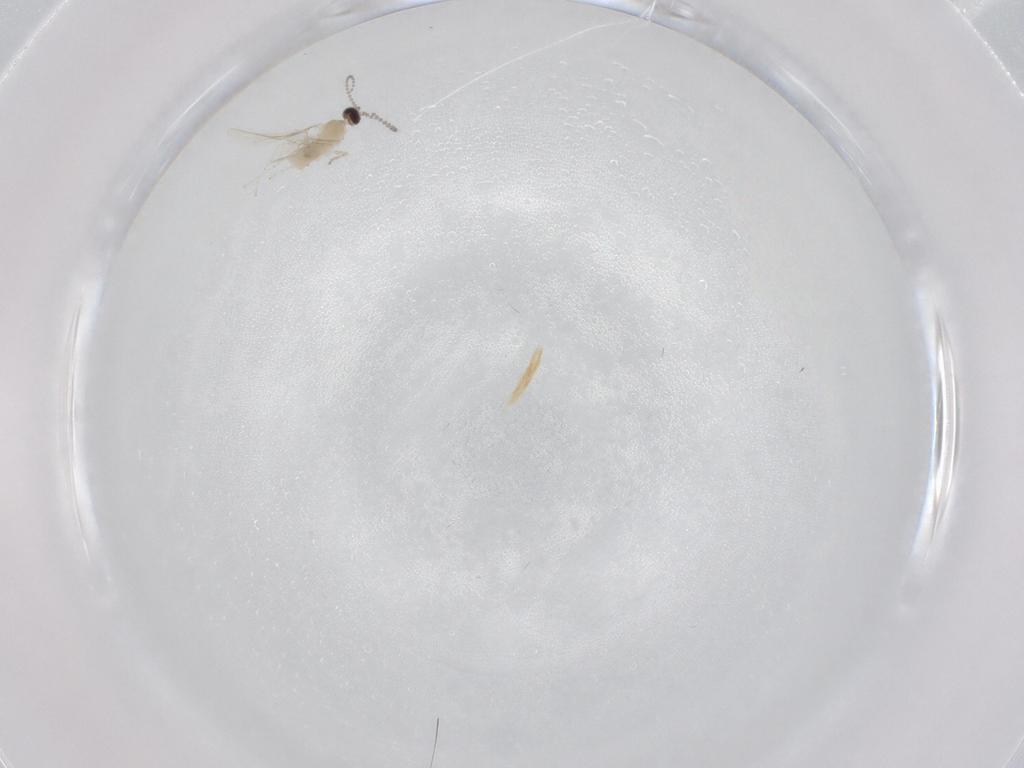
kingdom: Animalia
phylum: Arthropoda
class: Insecta
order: Diptera
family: Cecidomyiidae
